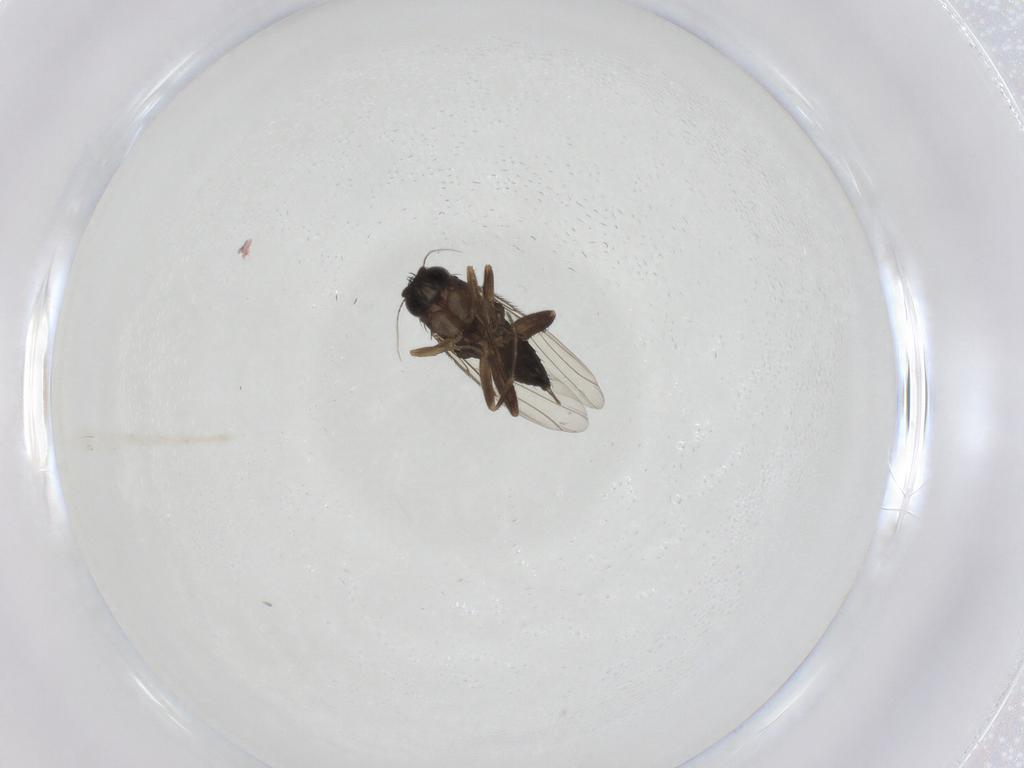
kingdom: Animalia
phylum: Arthropoda
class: Insecta
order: Diptera
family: Phoridae
